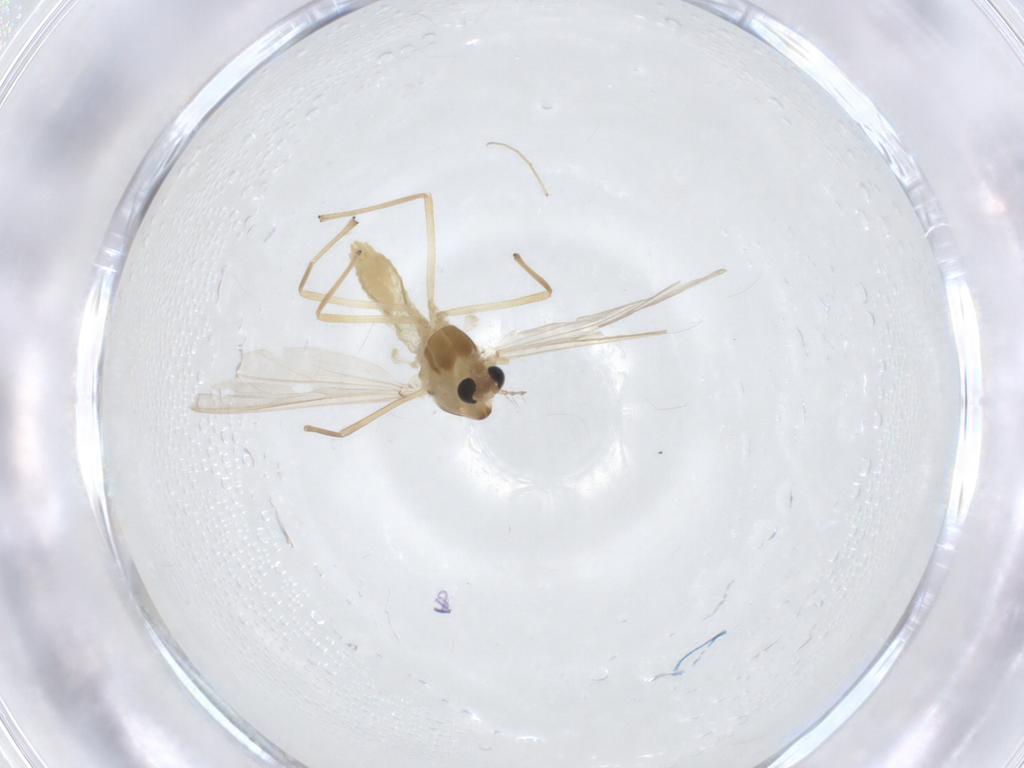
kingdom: Animalia
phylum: Arthropoda
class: Insecta
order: Diptera
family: Chironomidae
